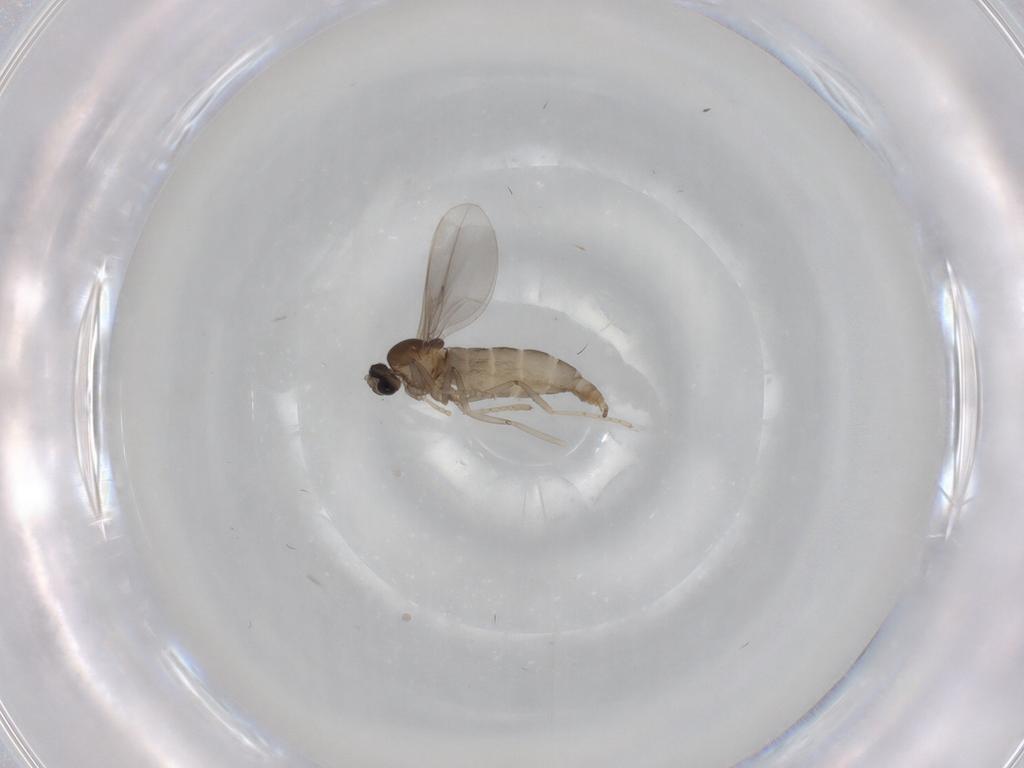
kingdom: Animalia
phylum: Arthropoda
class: Insecta
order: Diptera
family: Cecidomyiidae
